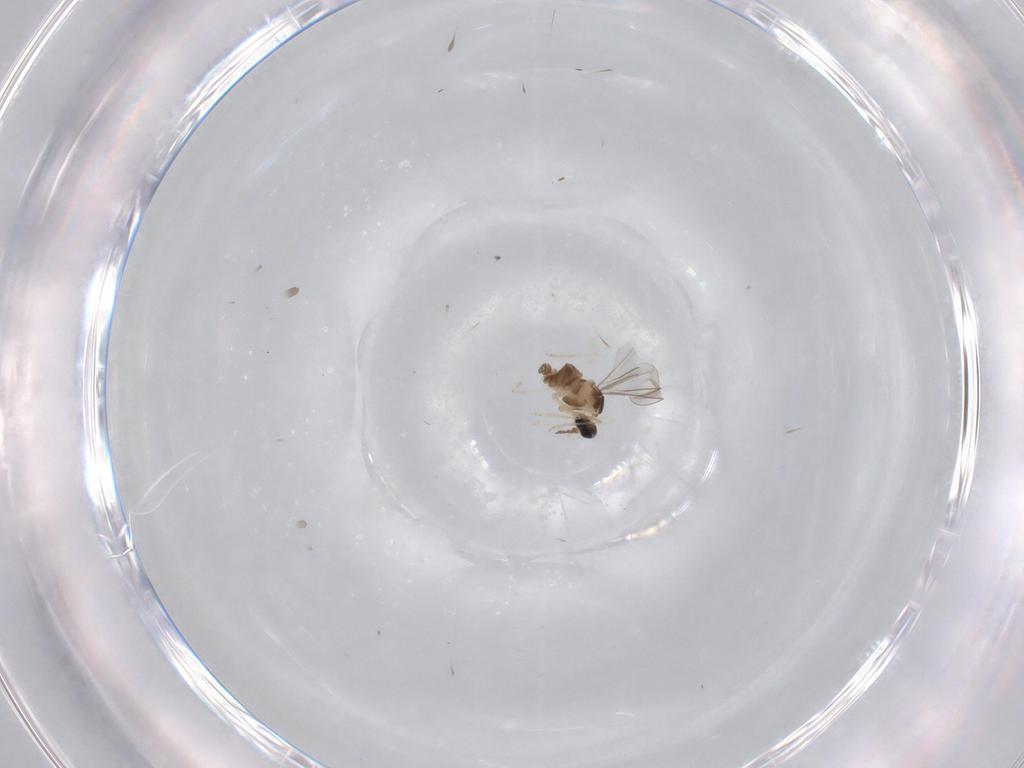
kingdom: Animalia
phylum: Arthropoda
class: Insecta
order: Diptera
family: Cecidomyiidae
